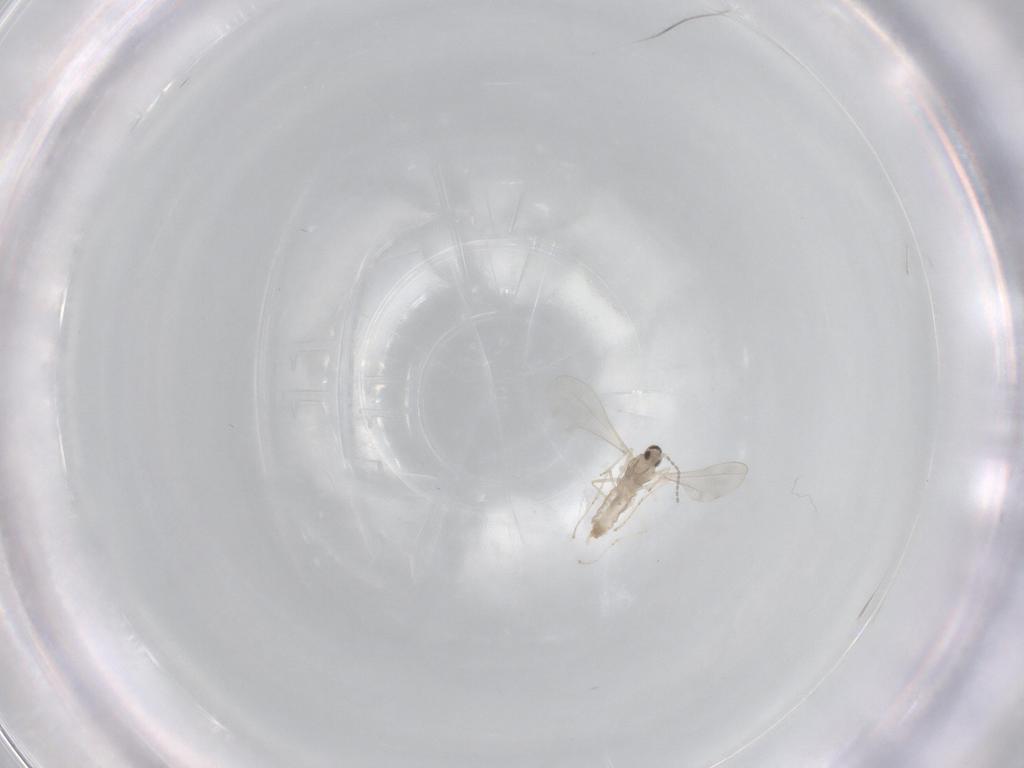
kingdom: Animalia
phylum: Arthropoda
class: Insecta
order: Diptera
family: Cecidomyiidae
